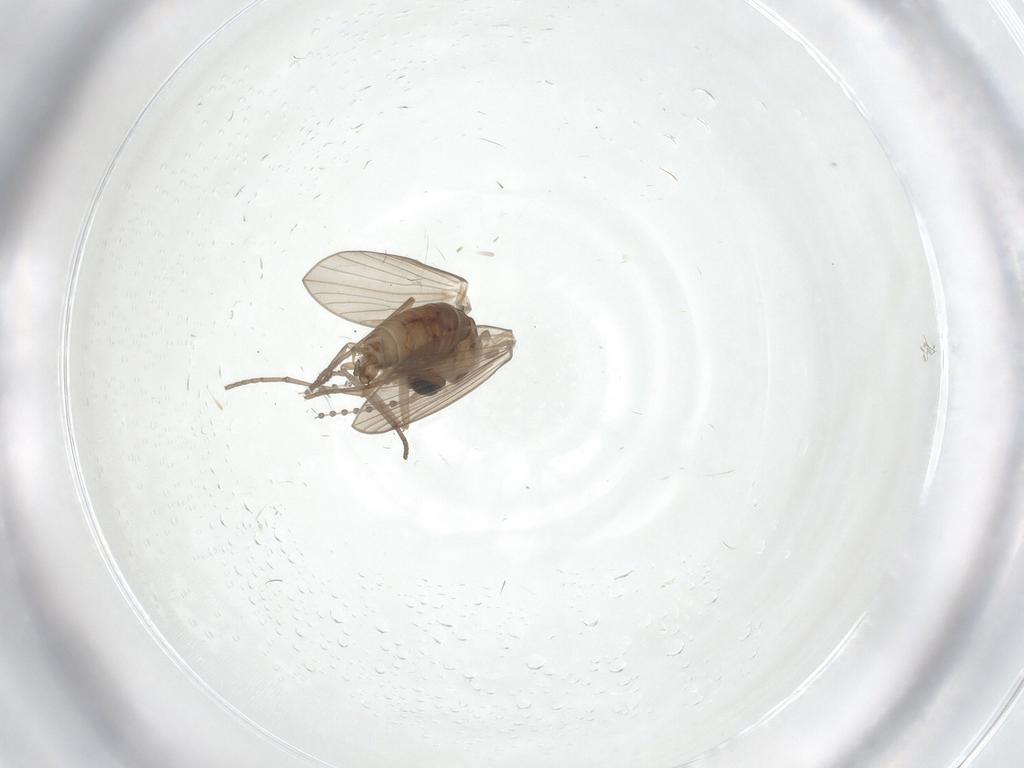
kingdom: Animalia
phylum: Arthropoda
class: Insecta
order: Diptera
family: Psychodidae
